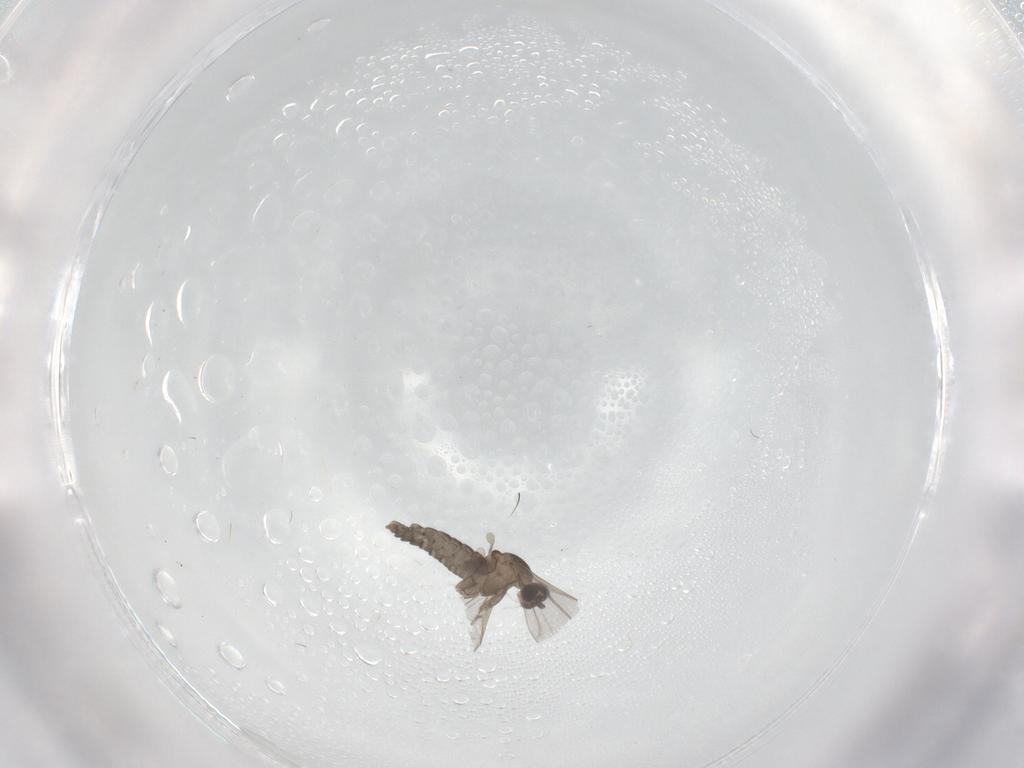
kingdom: Animalia
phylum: Arthropoda
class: Insecta
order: Diptera
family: Cecidomyiidae
